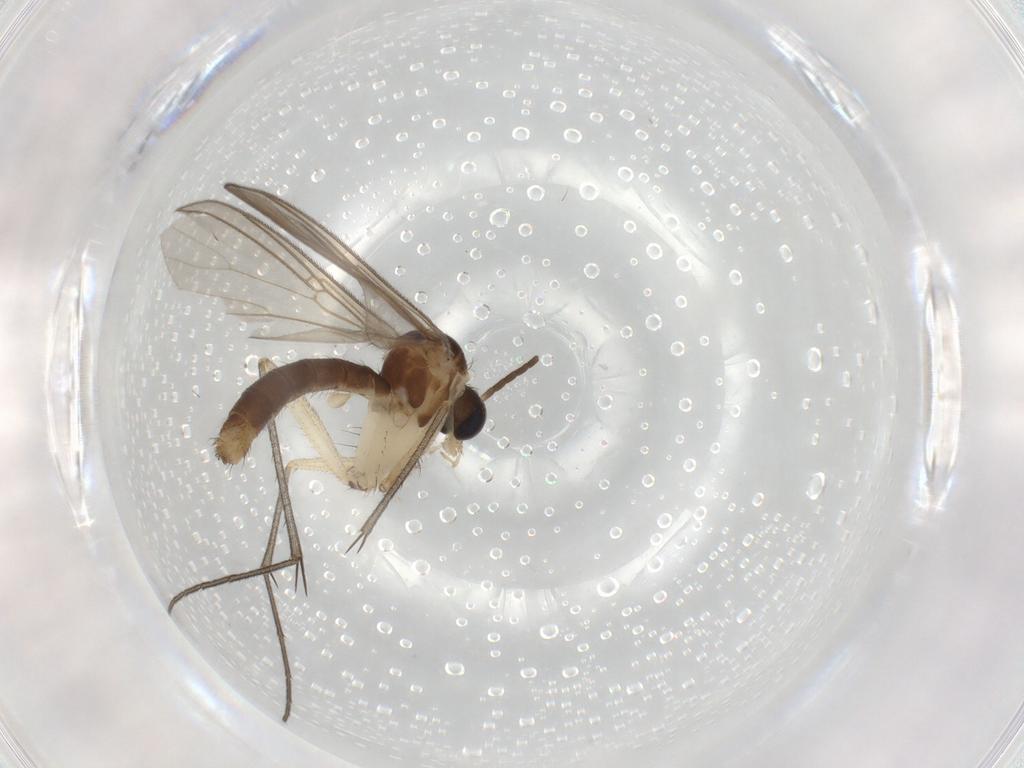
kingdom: Animalia
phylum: Arthropoda
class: Insecta
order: Diptera
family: Mycetophilidae
